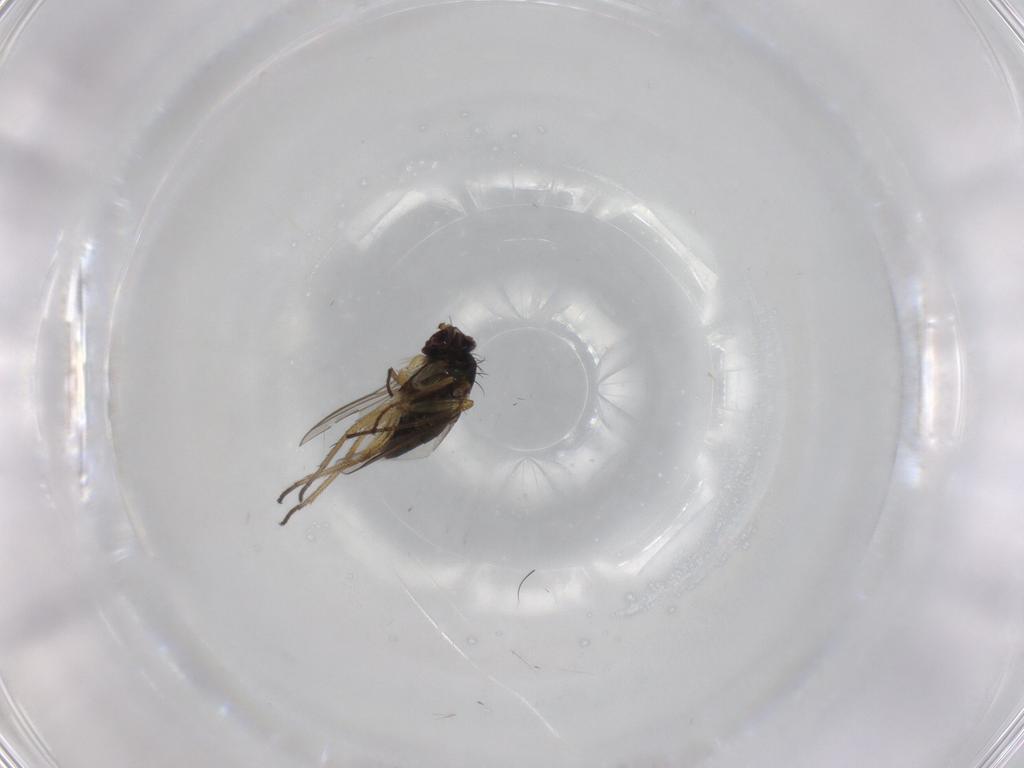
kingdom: Animalia
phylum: Arthropoda
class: Insecta
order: Diptera
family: Dolichopodidae
